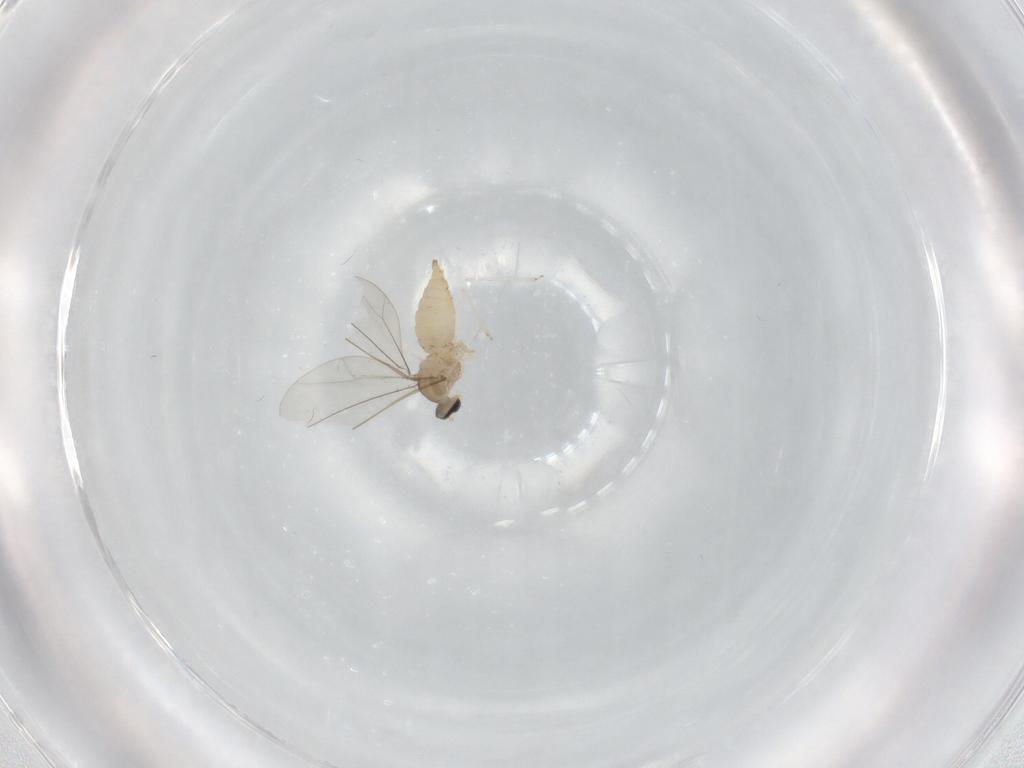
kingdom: Animalia
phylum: Arthropoda
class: Insecta
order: Diptera
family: Cecidomyiidae
